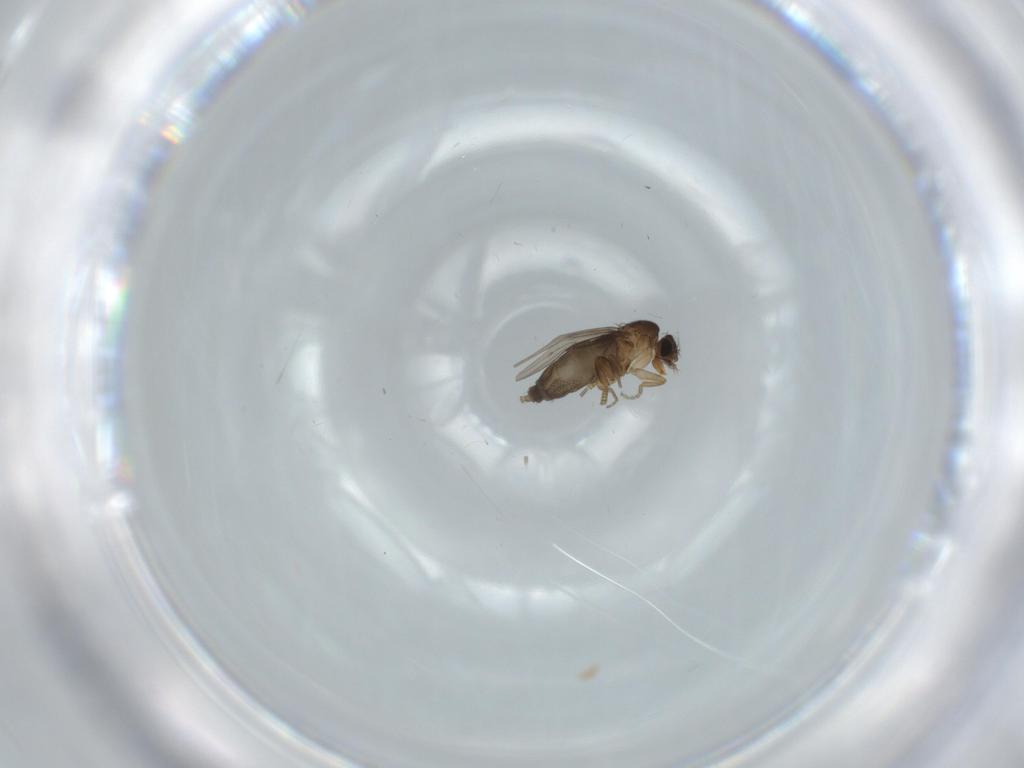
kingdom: Animalia
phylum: Arthropoda
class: Insecta
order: Diptera
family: Phoridae
